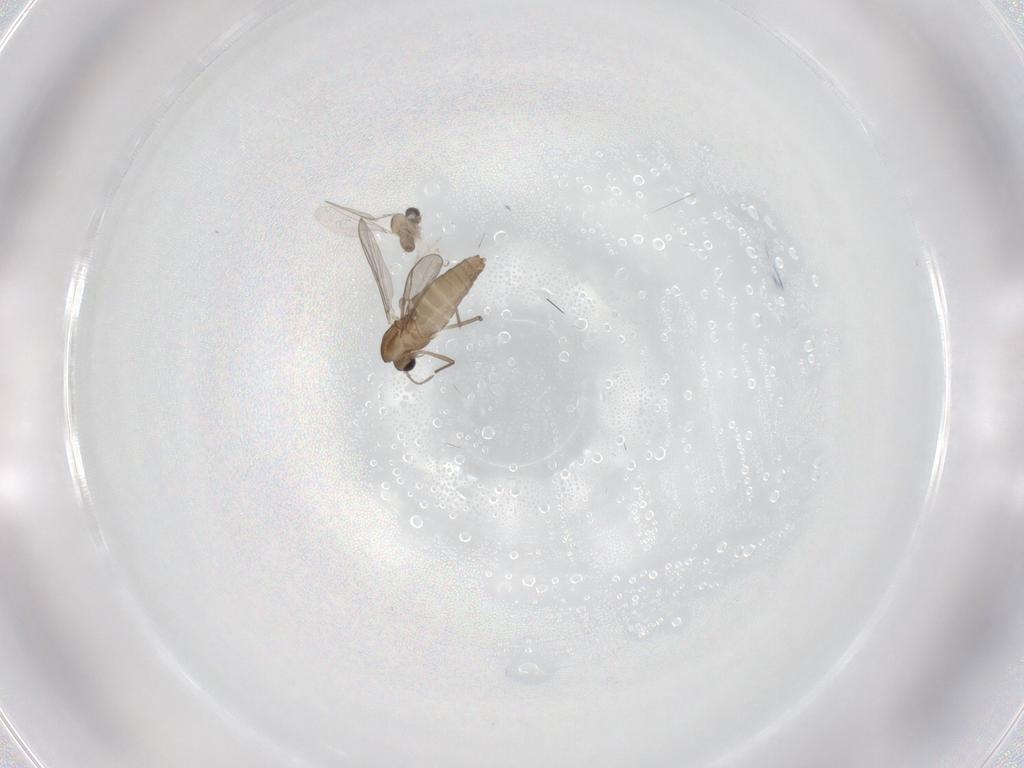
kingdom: Animalia
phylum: Arthropoda
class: Insecta
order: Diptera
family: Chironomidae
